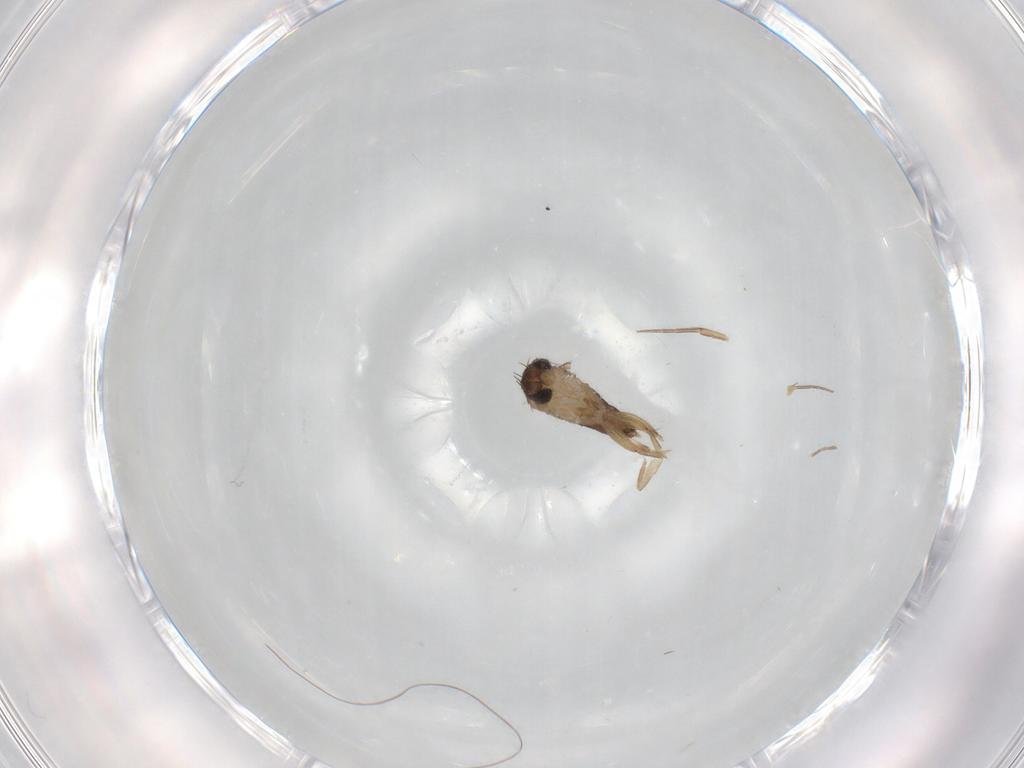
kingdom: Animalia
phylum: Arthropoda
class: Insecta
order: Diptera
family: Phoridae
